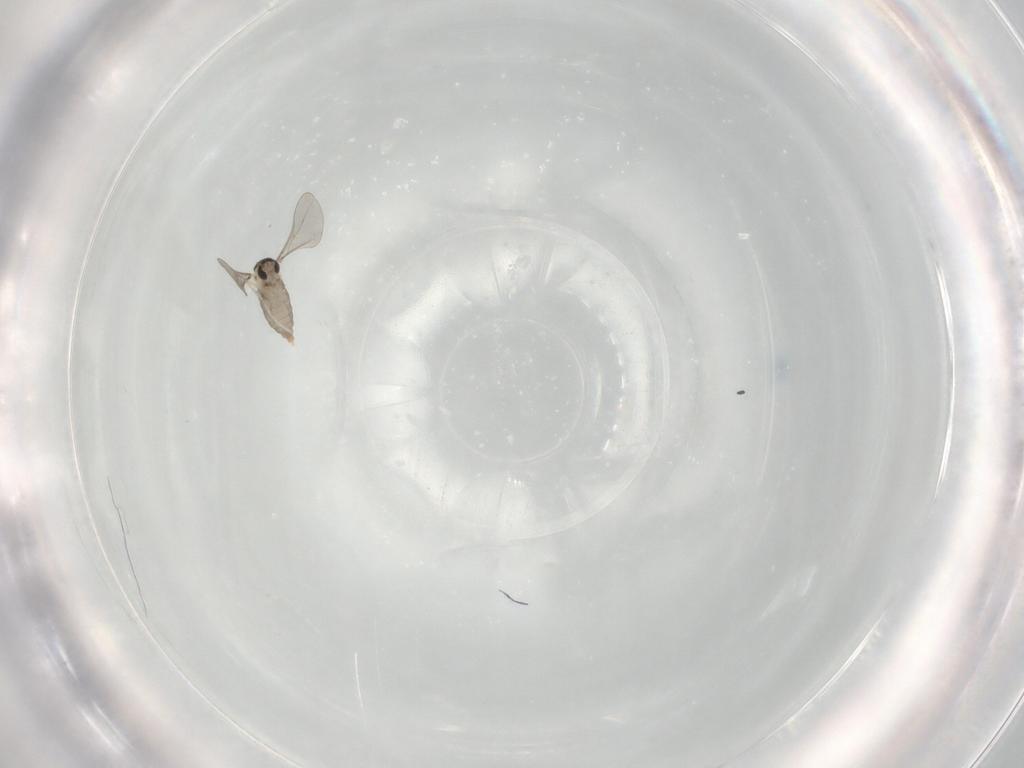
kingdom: Animalia
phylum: Arthropoda
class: Insecta
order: Diptera
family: Cecidomyiidae
